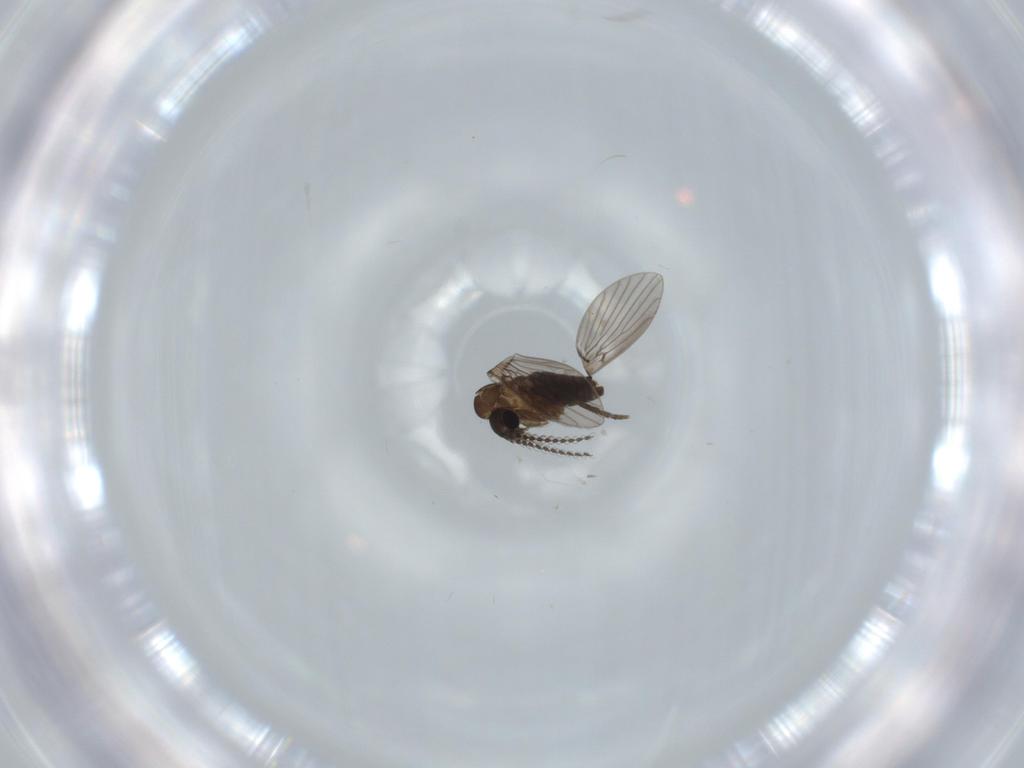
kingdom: Animalia
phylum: Arthropoda
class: Insecta
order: Diptera
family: Psychodidae
